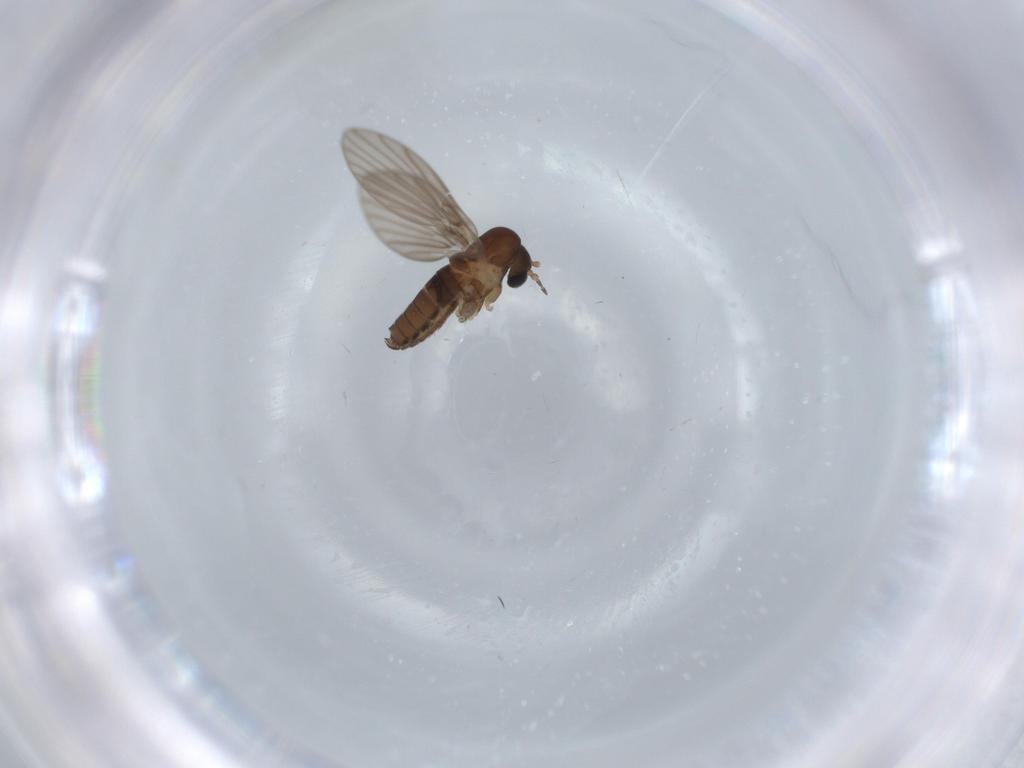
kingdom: Animalia
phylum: Arthropoda
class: Insecta
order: Diptera
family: Psychodidae
